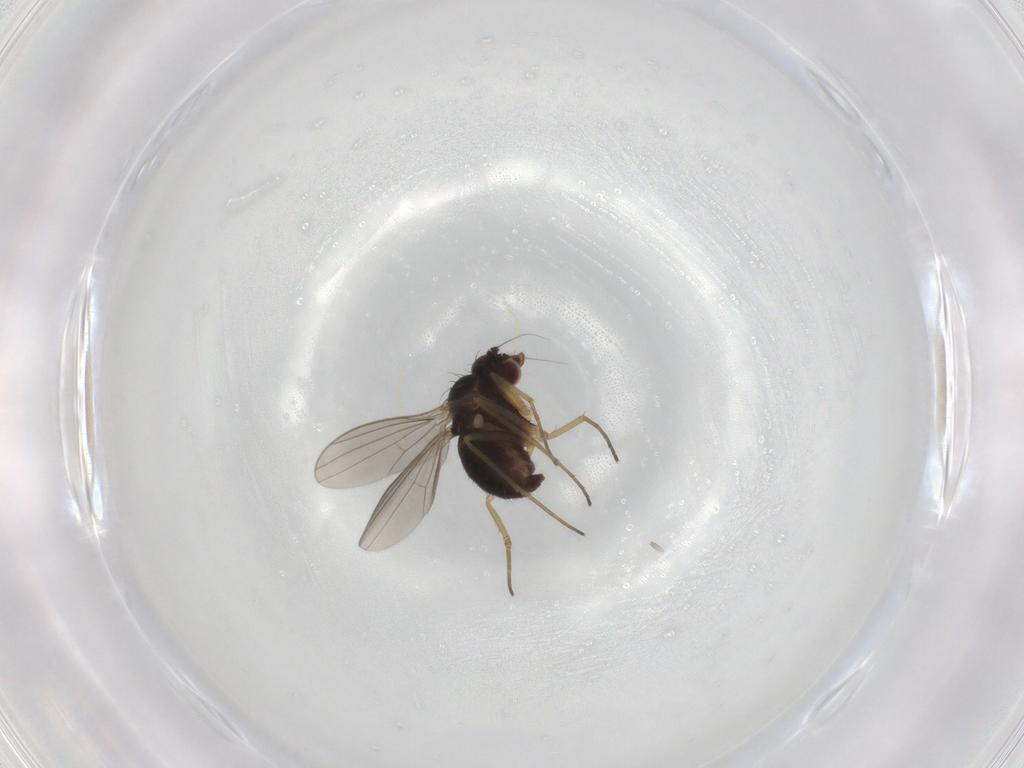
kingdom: Animalia
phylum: Arthropoda
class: Insecta
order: Diptera
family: Dolichopodidae
